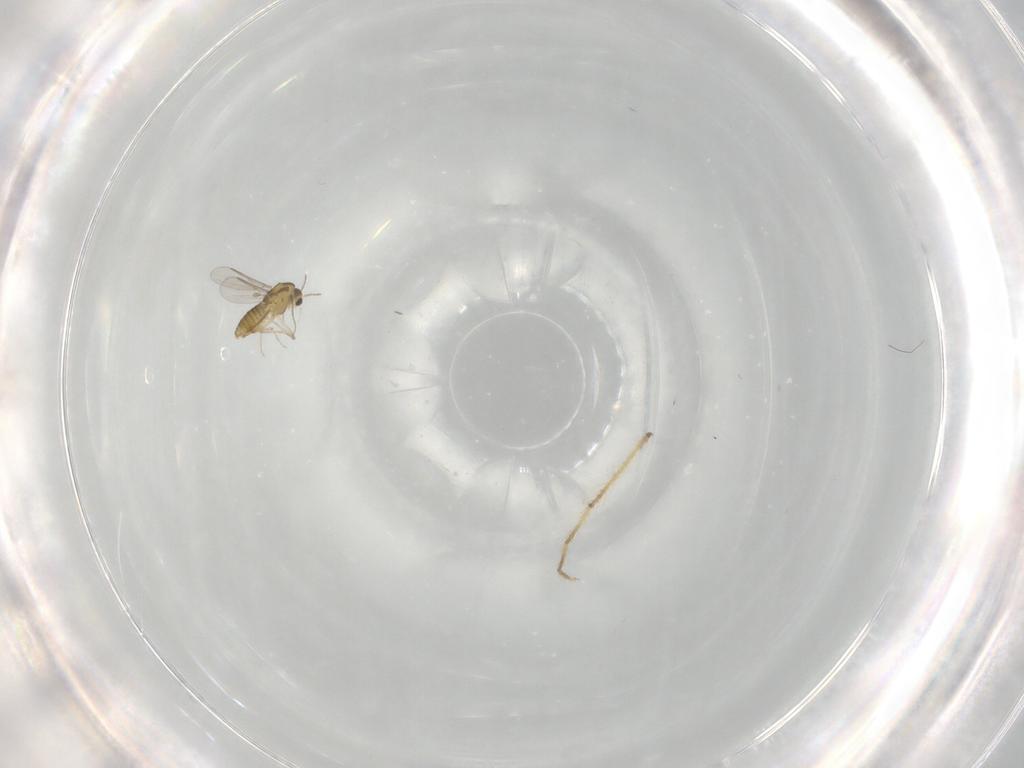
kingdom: Animalia
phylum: Arthropoda
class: Insecta
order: Diptera
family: Chironomidae
